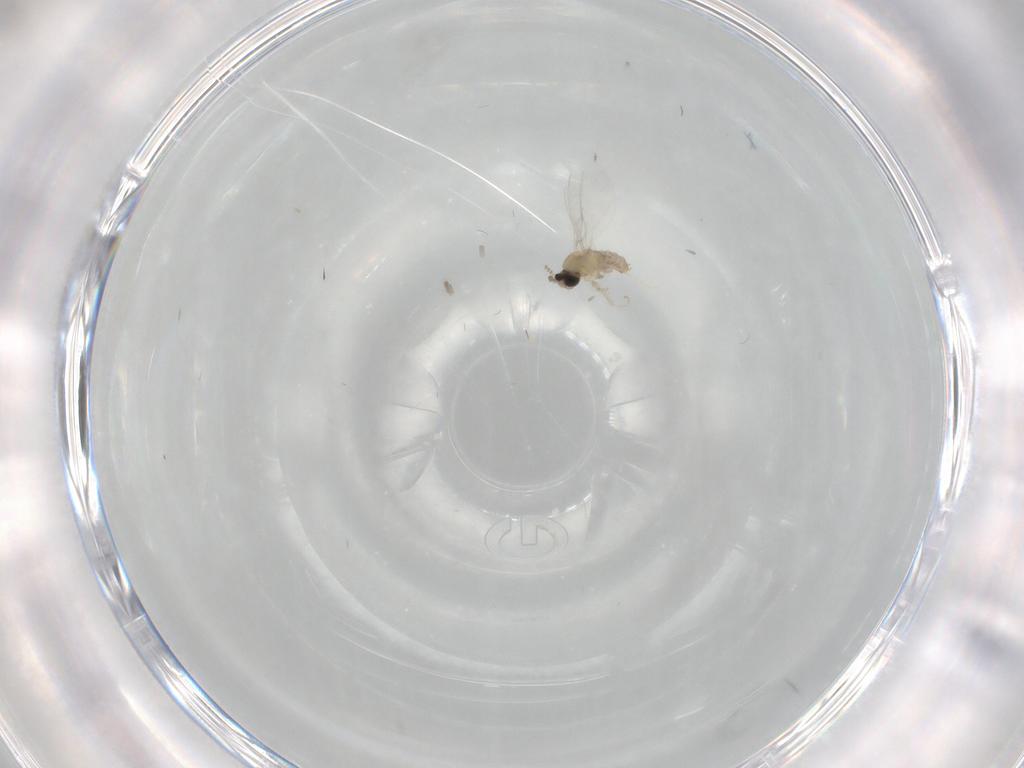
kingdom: Animalia
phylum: Arthropoda
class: Insecta
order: Diptera
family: Sciaridae
